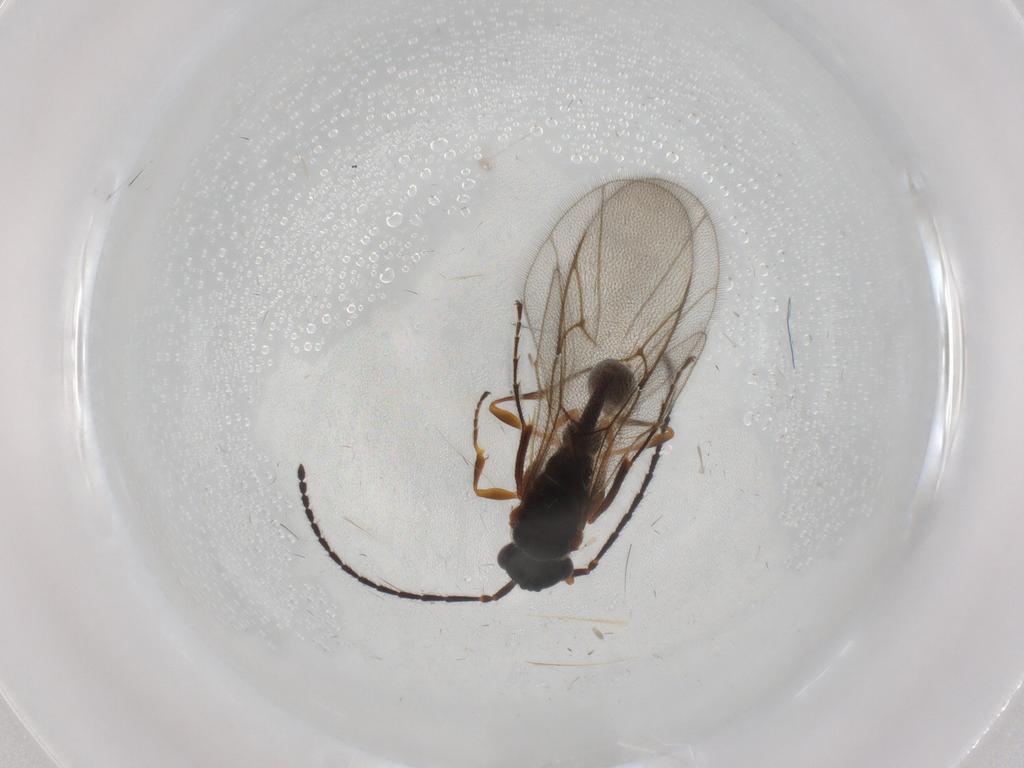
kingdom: Animalia
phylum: Arthropoda
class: Insecta
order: Hymenoptera
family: Diapriidae
